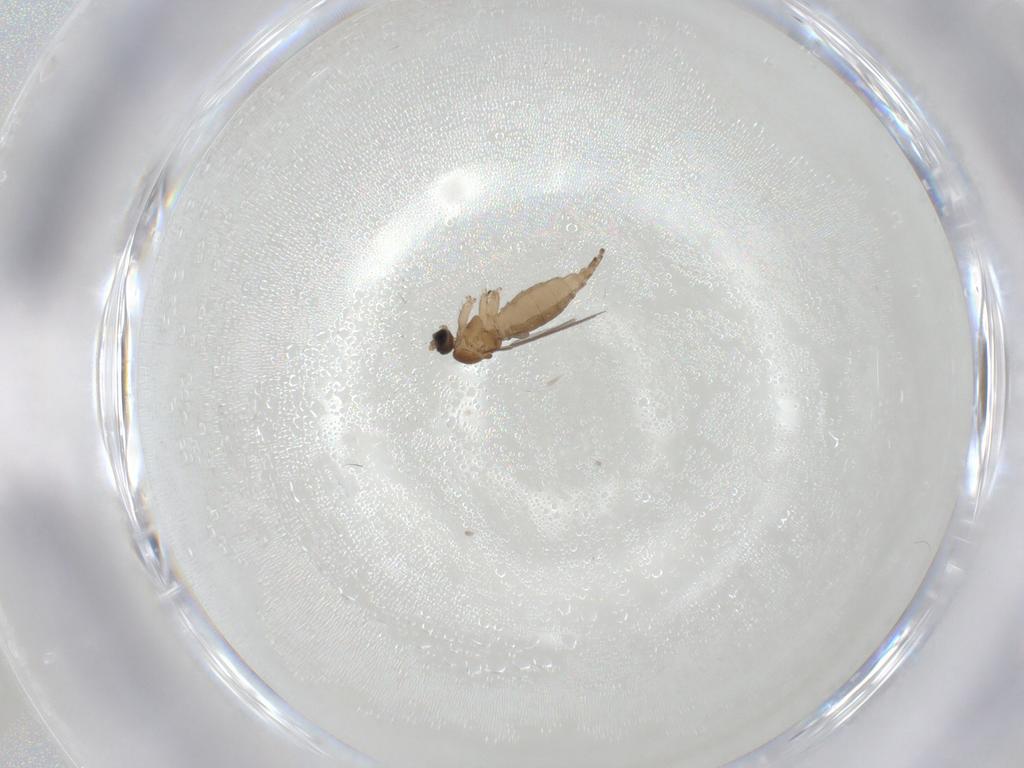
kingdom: Animalia
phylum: Arthropoda
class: Insecta
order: Diptera
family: Sciaridae
